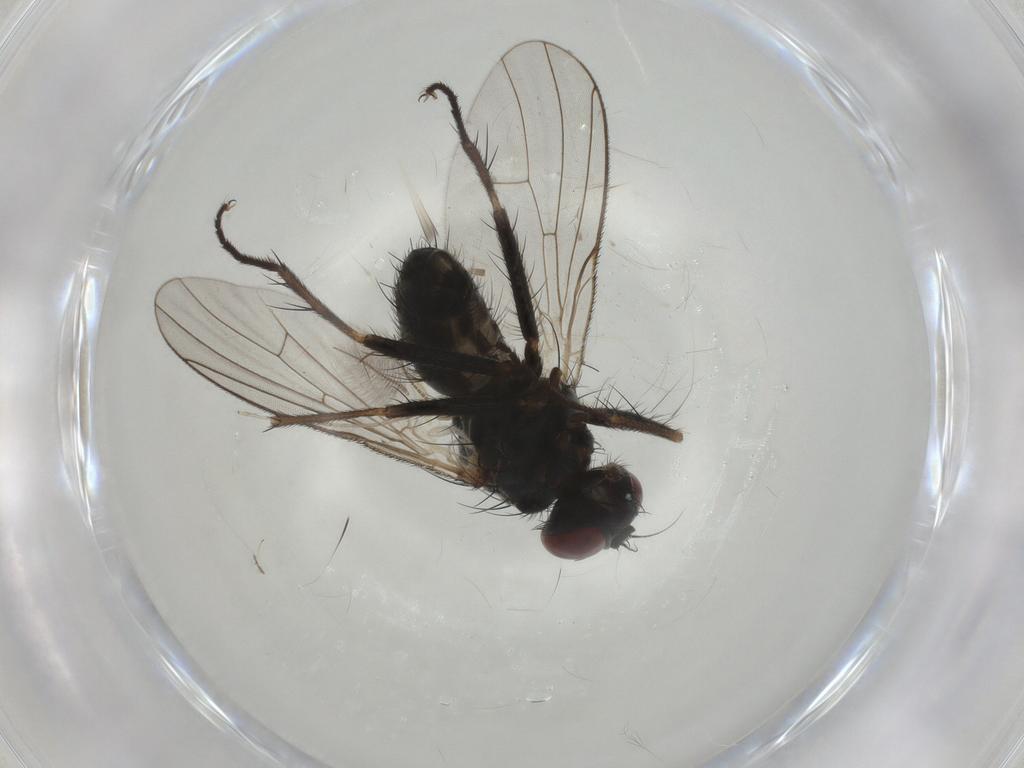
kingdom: Animalia
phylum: Arthropoda
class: Insecta
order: Diptera
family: Muscidae
